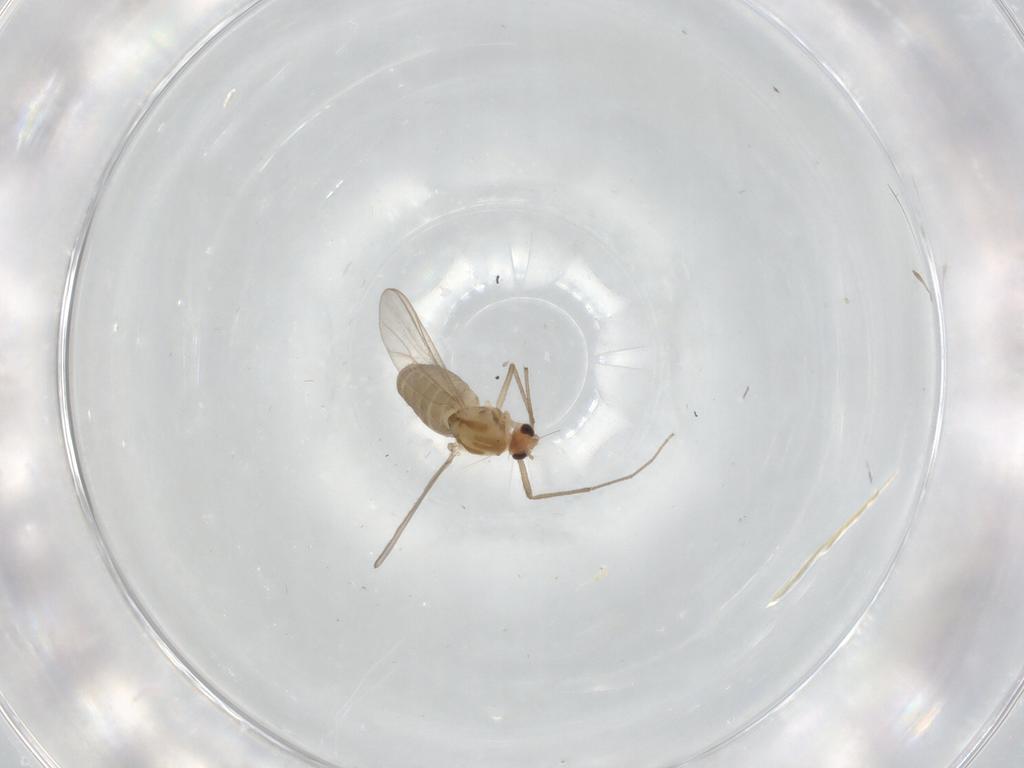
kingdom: Animalia
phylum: Arthropoda
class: Insecta
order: Diptera
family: Chironomidae
